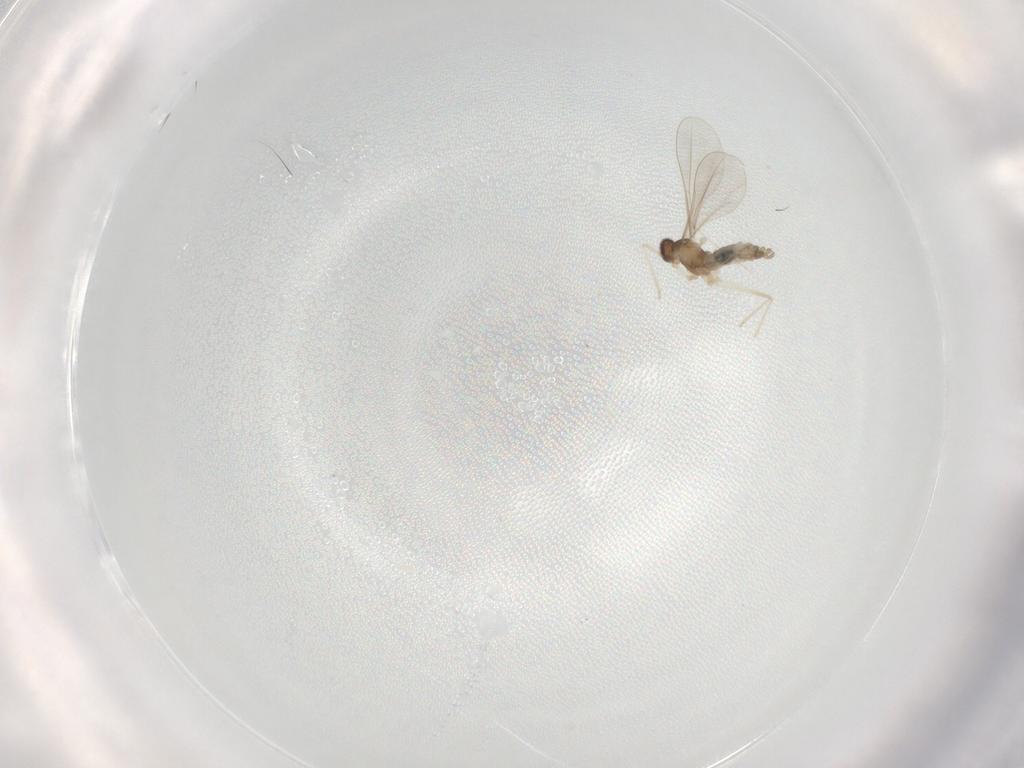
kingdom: Animalia
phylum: Arthropoda
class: Insecta
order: Diptera
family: Cecidomyiidae
